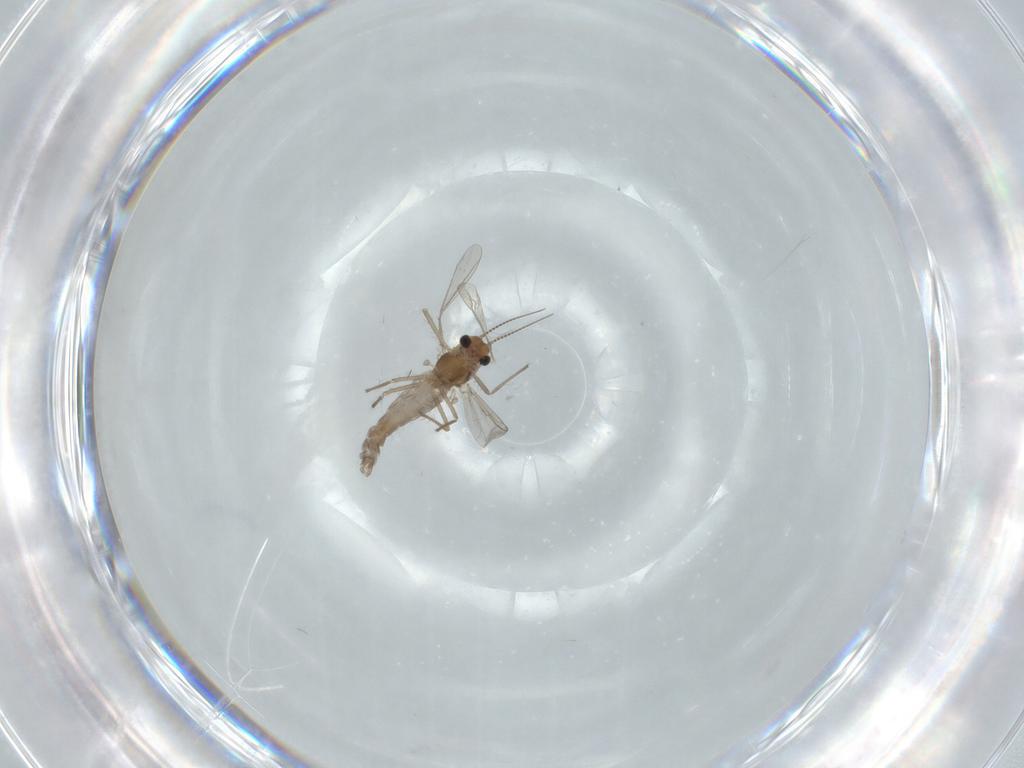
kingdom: Animalia
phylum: Arthropoda
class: Insecta
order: Diptera
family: Chironomidae
